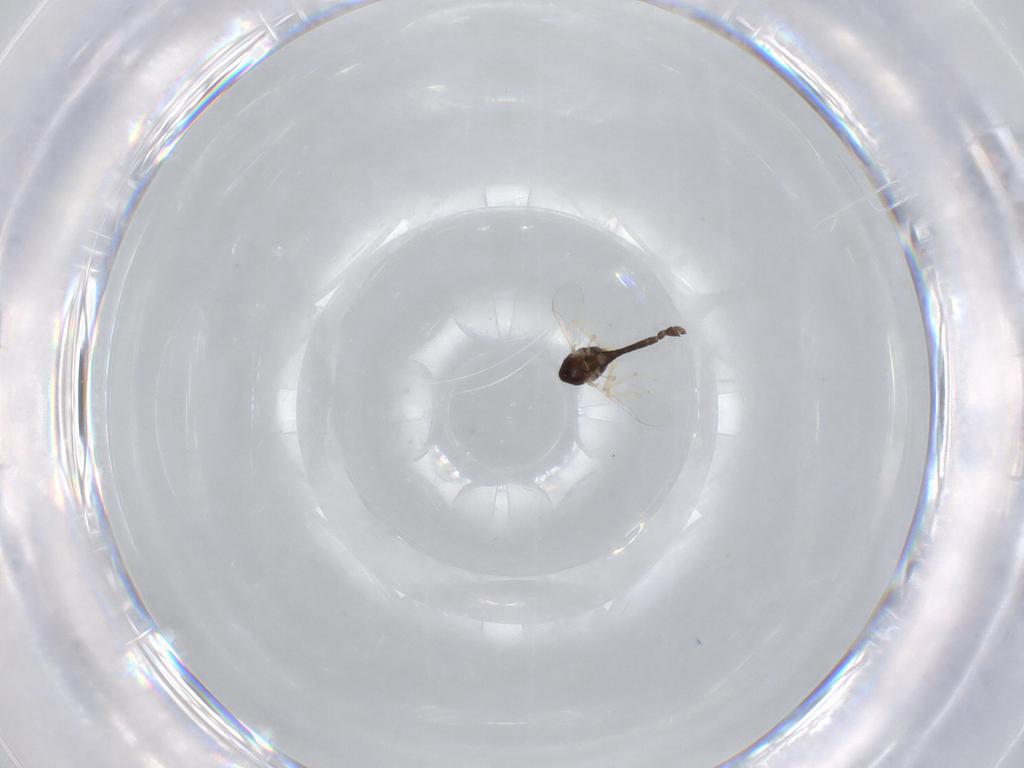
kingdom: Animalia
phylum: Arthropoda
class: Insecta
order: Diptera
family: Chironomidae
